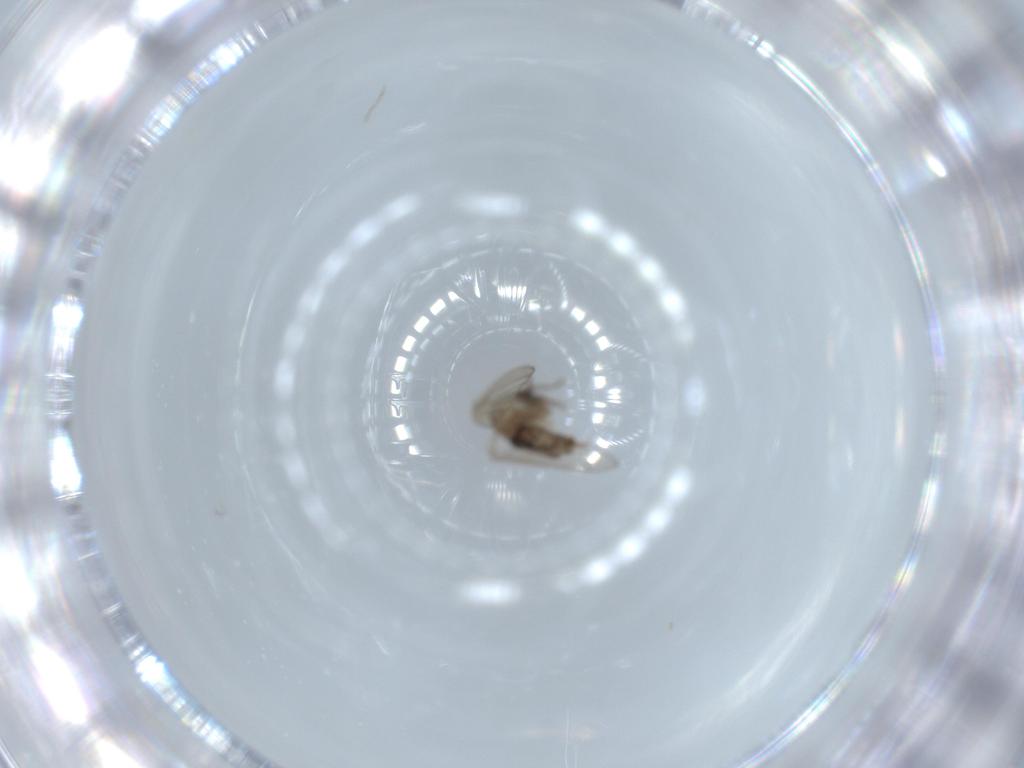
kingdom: Animalia
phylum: Arthropoda
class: Insecta
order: Diptera
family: Psychodidae
